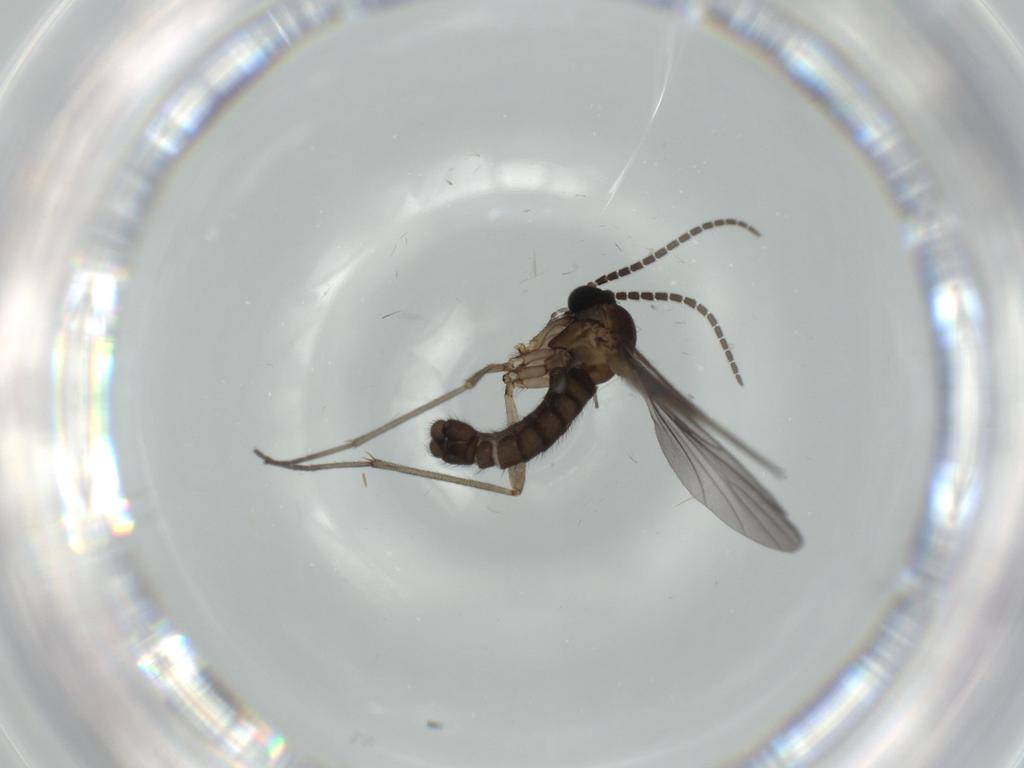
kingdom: Animalia
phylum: Arthropoda
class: Insecta
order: Diptera
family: Sciaridae
